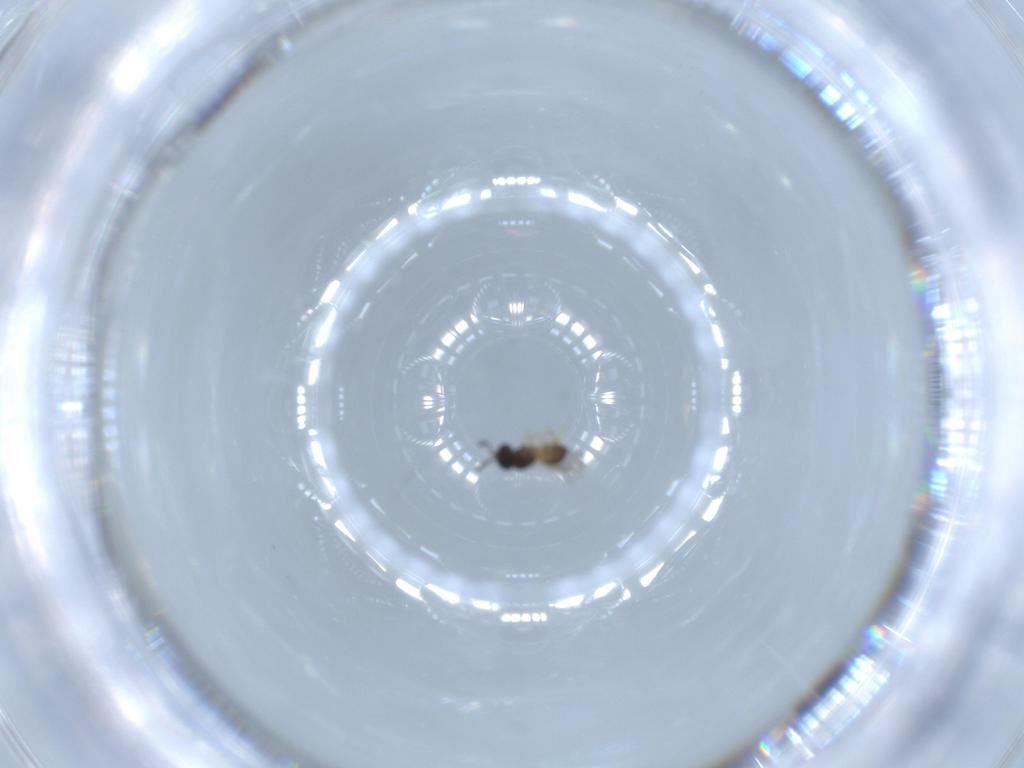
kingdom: Animalia
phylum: Arthropoda
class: Insecta
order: Hymenoptera
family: Scelionidae
